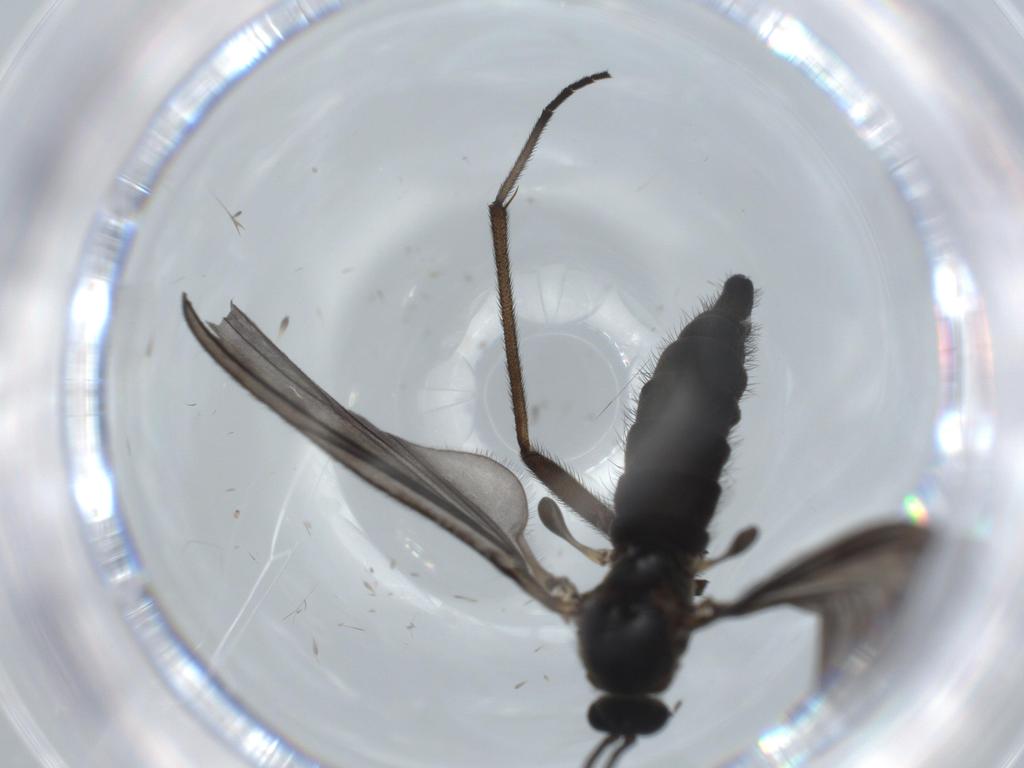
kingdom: Animalia
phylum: Arthropoda
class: Insecta
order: Diptera
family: Sciaridae
